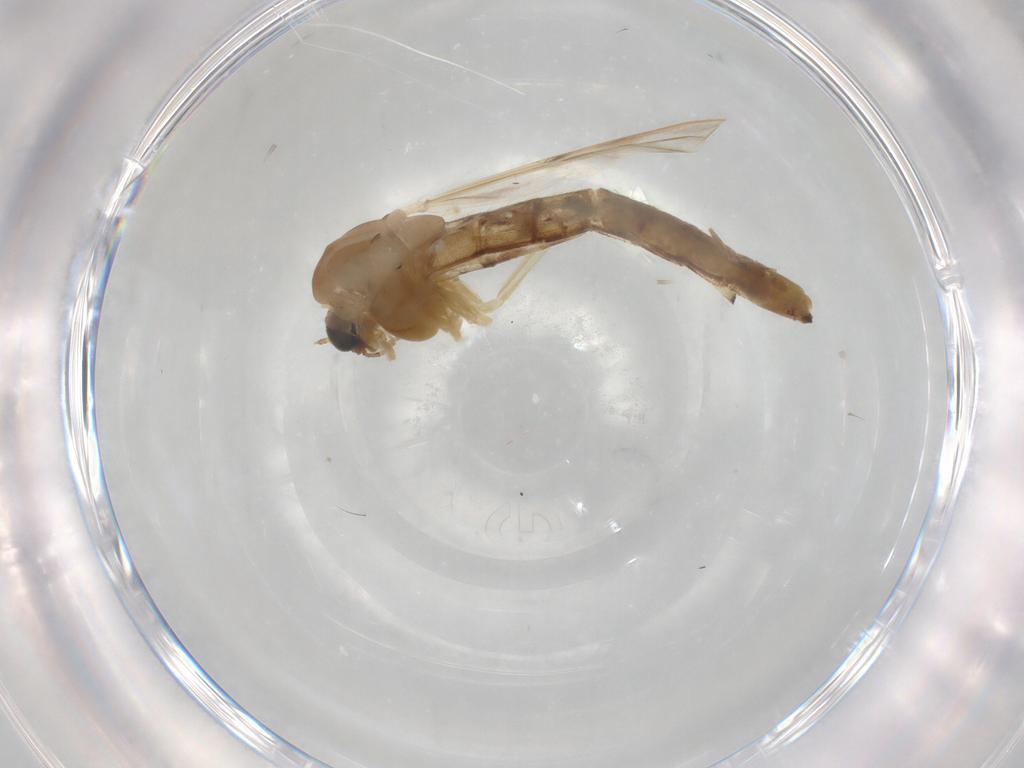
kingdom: Animalia
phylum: Arthropoda
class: Insecta
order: Diptera
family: Chironomidae
